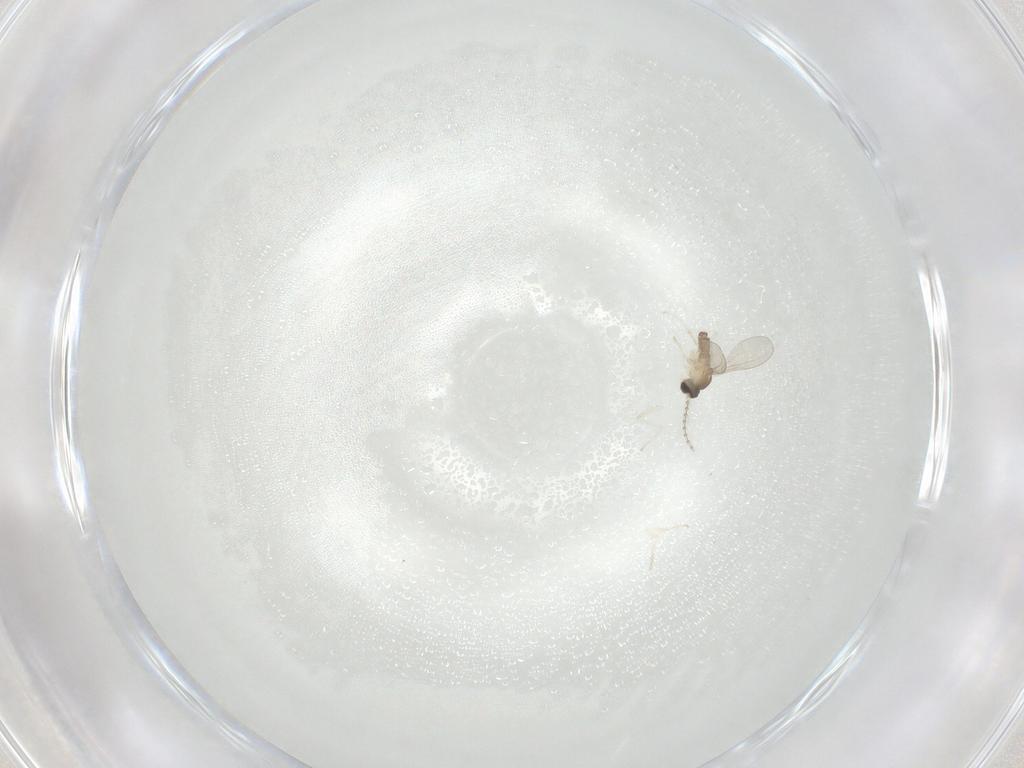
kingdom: Animalia
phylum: Arthropoda
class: Insecta
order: Diptera
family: Cecidomyiidae
